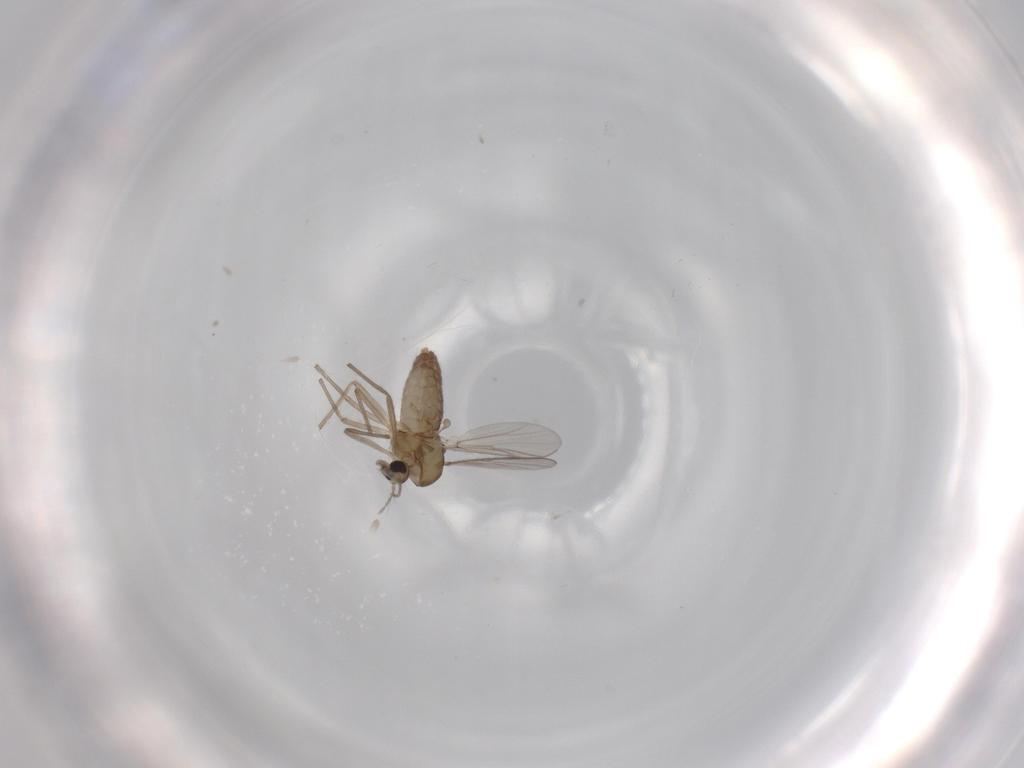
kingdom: Animalia
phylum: Arthropoda
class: Insecta
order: Diptera
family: Chironomidae
